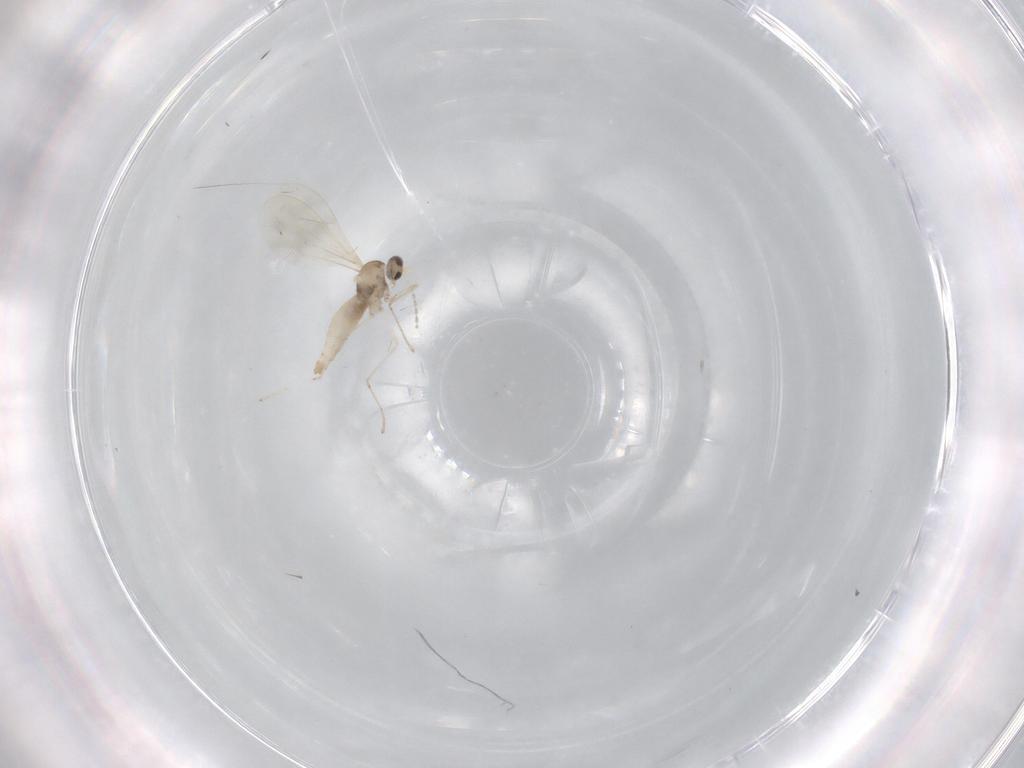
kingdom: Animalia
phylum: Arthropoda
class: Insecta
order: Diptera
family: Cecidomyiidae
